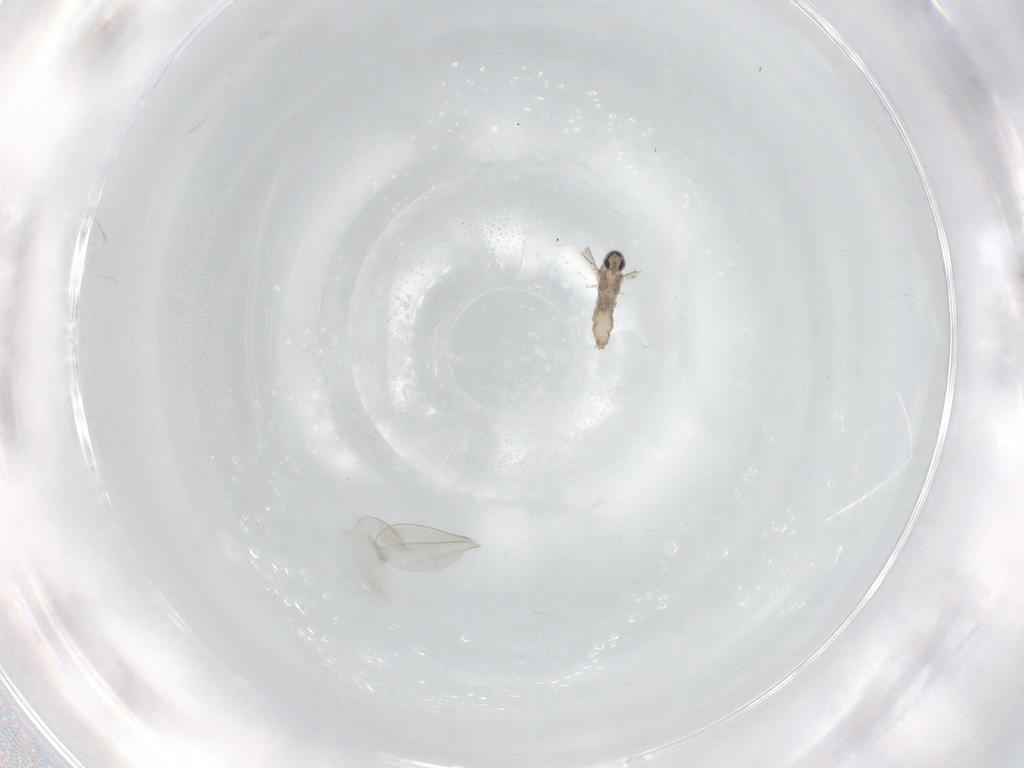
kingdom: Animalia
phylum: Arthropoda
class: Insecta
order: Diptera
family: Cecidomyiidae
